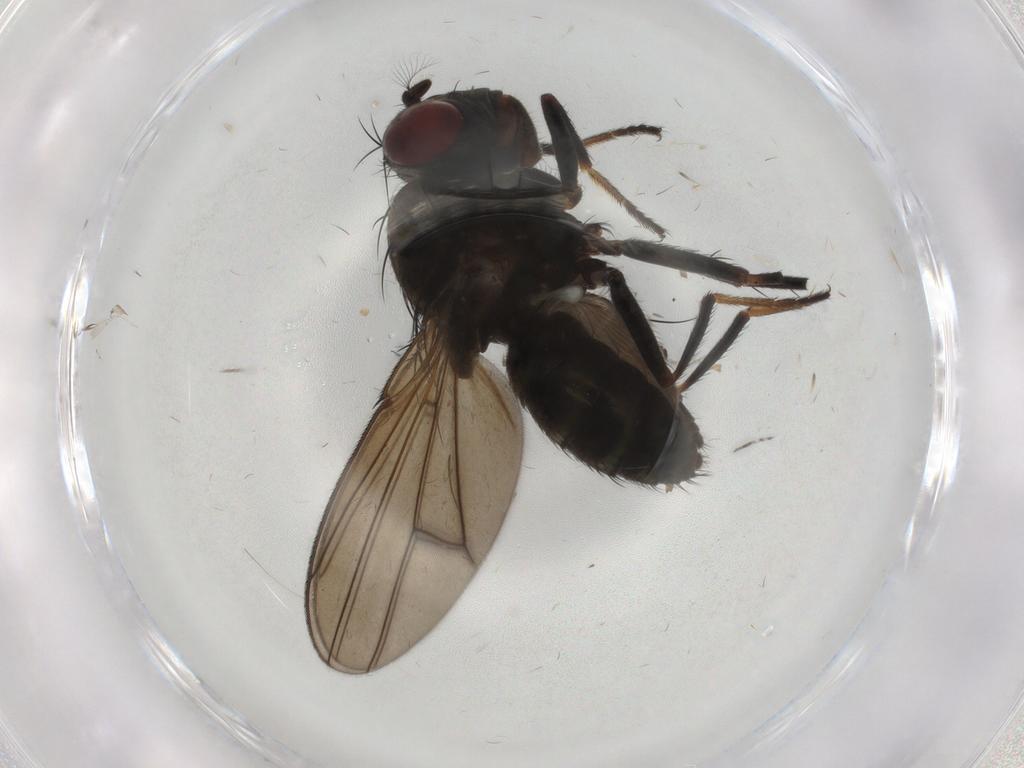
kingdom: Animalia
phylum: Arthropoda
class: Insecta
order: Diptera
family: Ephydridae
